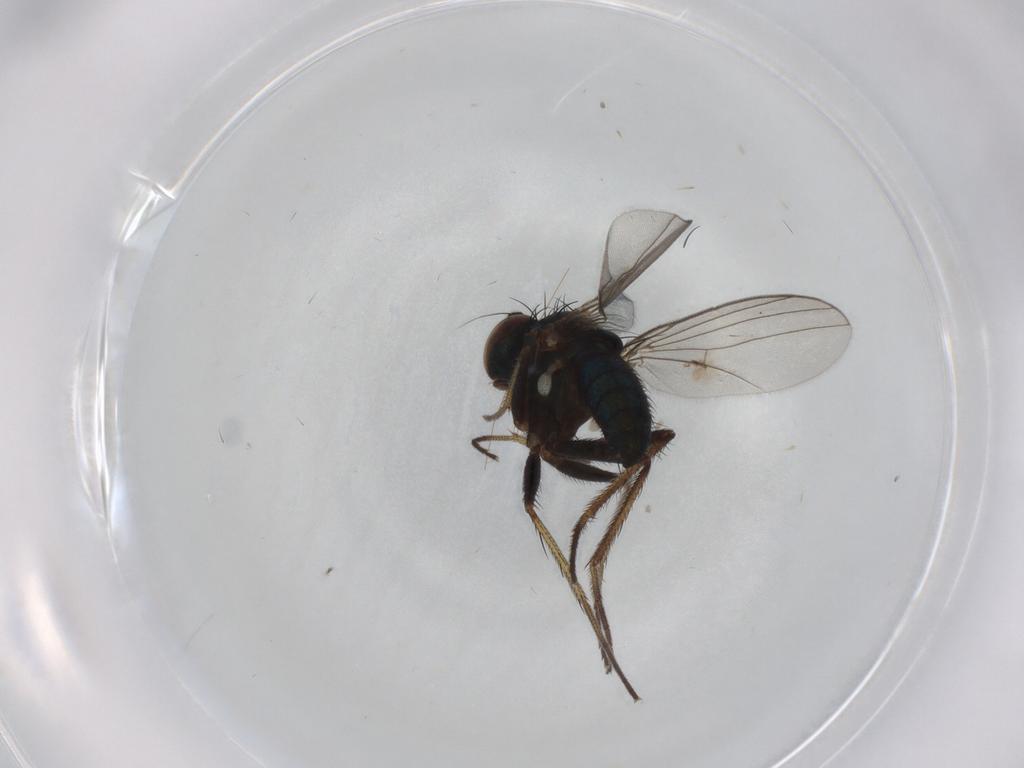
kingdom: Animalia
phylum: Arthropoda
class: Insecta
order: Diptera
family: Dolichopodidae
